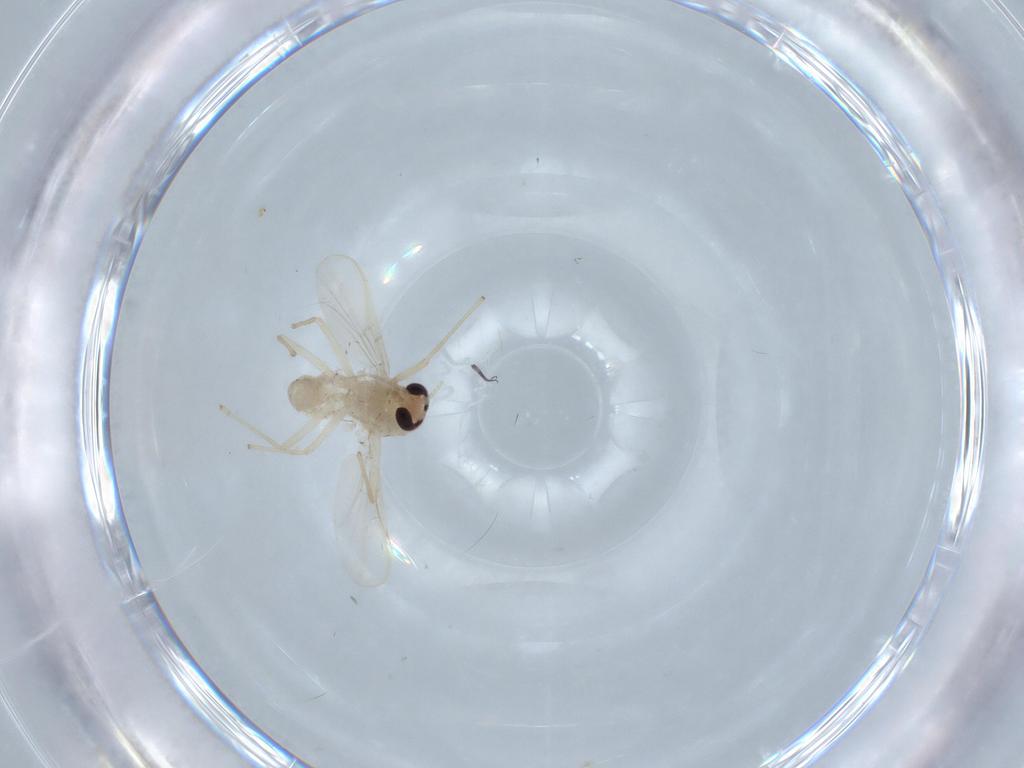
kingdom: Animalia
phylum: Arthropoda
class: Insecta
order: Diptera
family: Chironomidae
